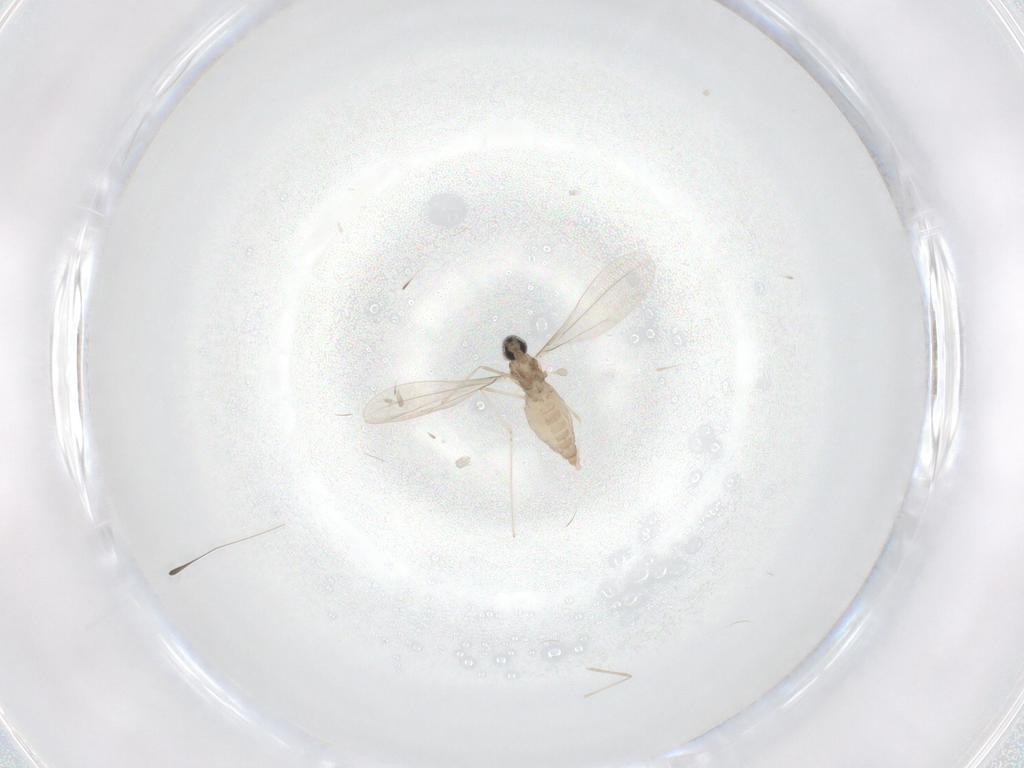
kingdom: Animalia
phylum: Arthropoda
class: Insecta
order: Diptera
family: Cecidomyiidae
